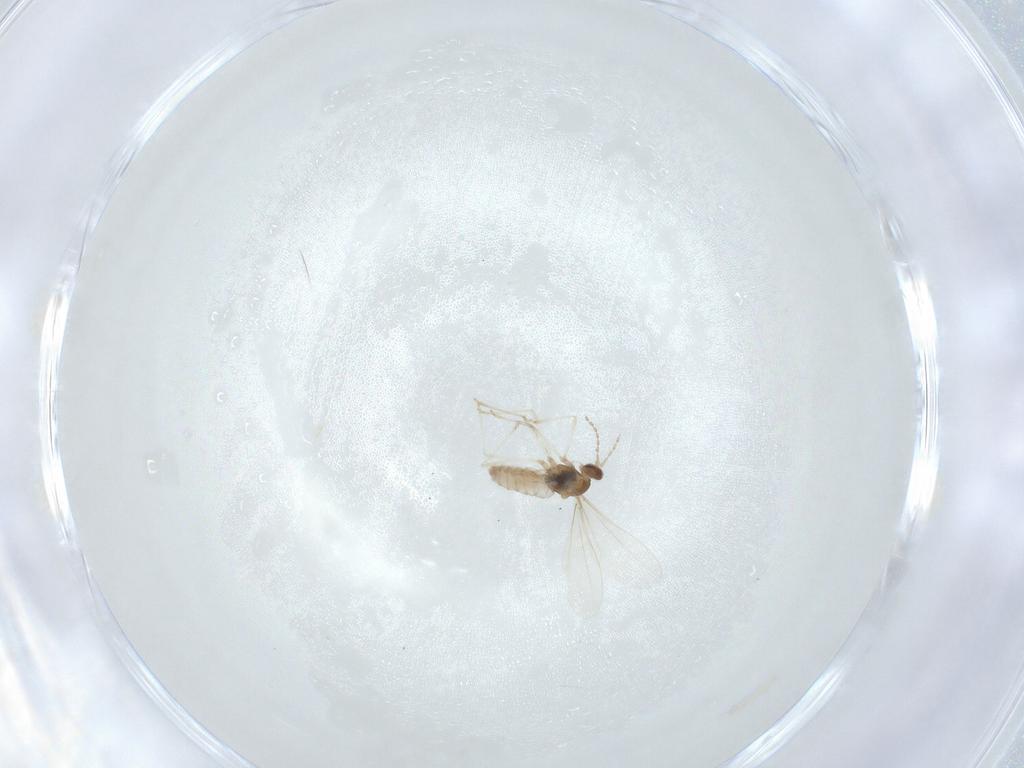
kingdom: Animalia
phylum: Arthropoda
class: Insecta
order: Diptera
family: Cecidomyiidae
